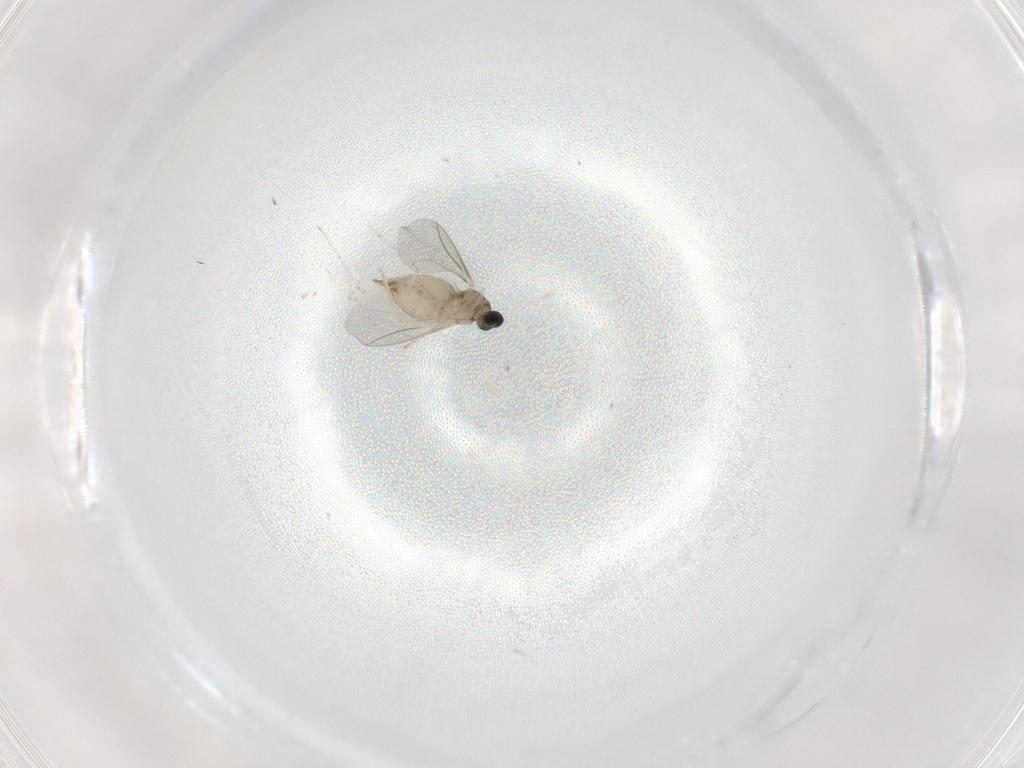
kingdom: Animalia
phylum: Arthropoda
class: Insecta
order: Diptera
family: Cecidomyiidae
